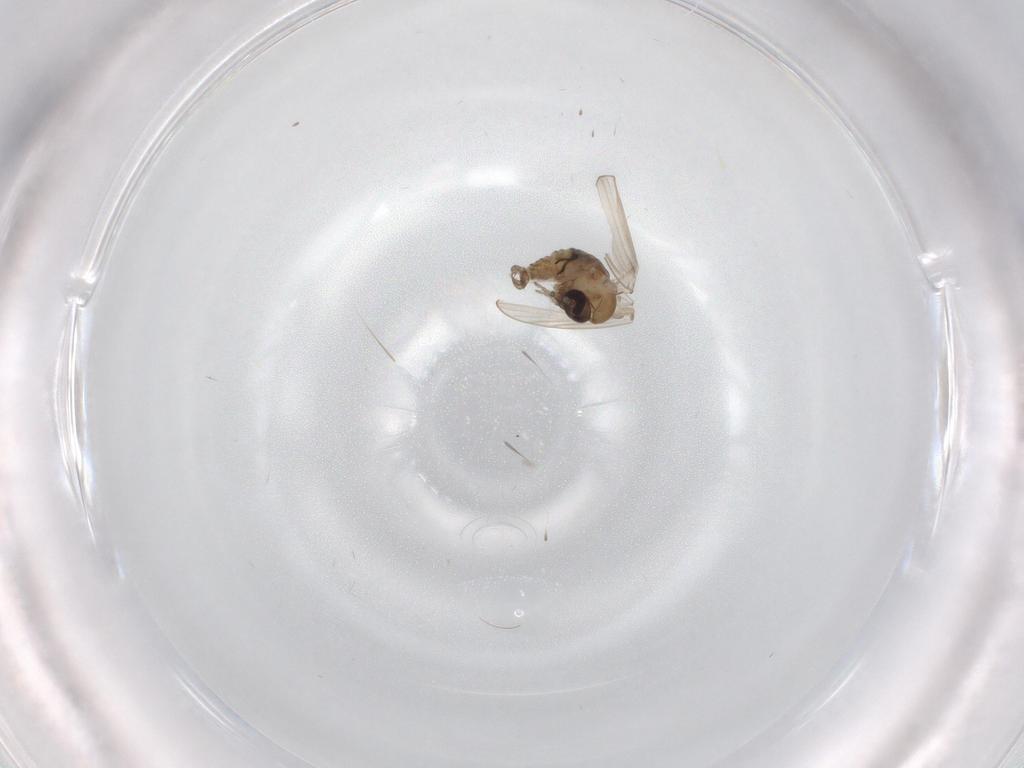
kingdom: Animalia
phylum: Arthropoda
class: Insecta
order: Diptera
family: Psychodidae
